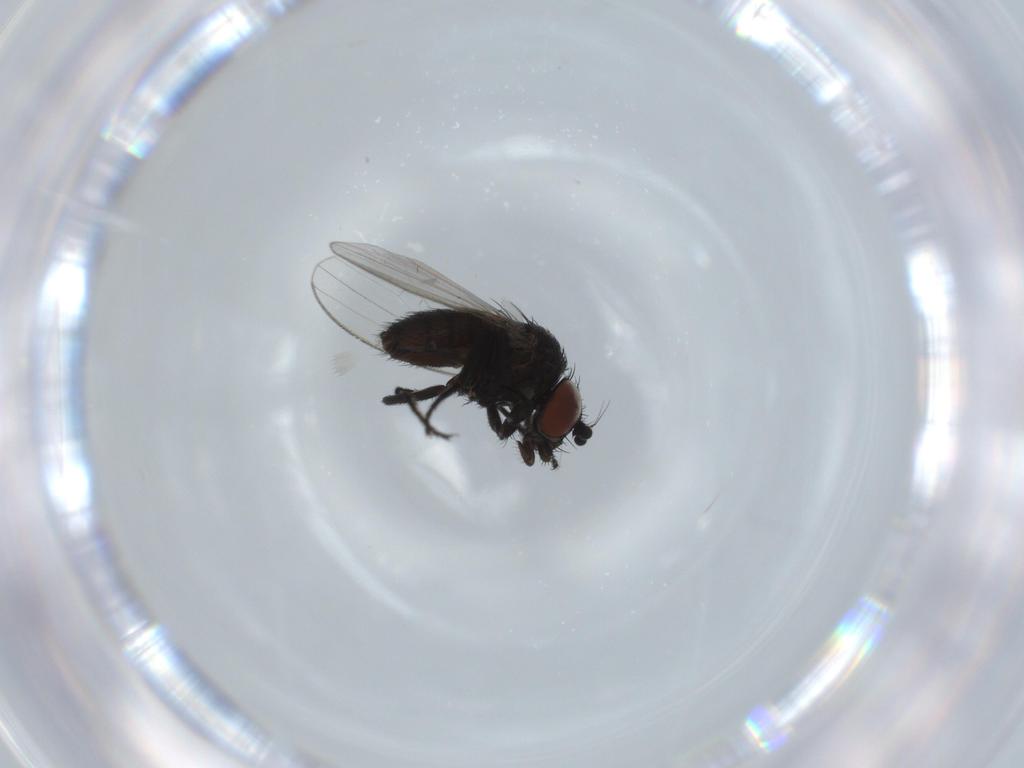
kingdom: Animalia
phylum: Arthropoda
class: Insecta
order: Diptera
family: Milichiidae
